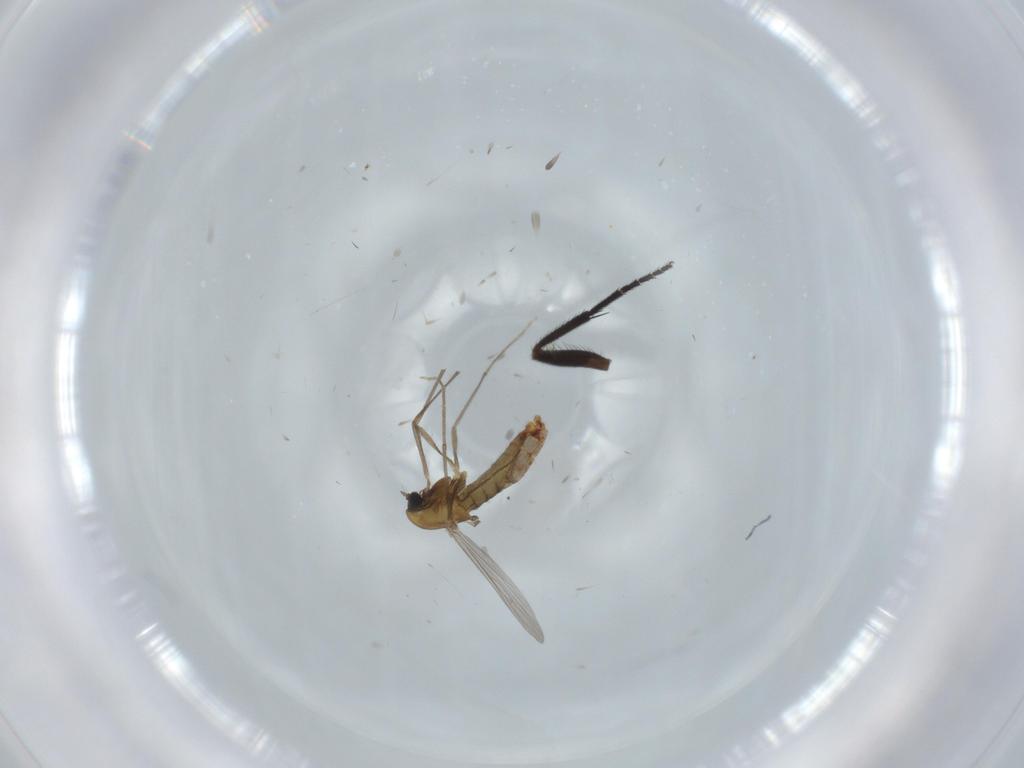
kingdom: Animalia
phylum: Arthropoda
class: Insecta
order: Diptera
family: Chironomidae
